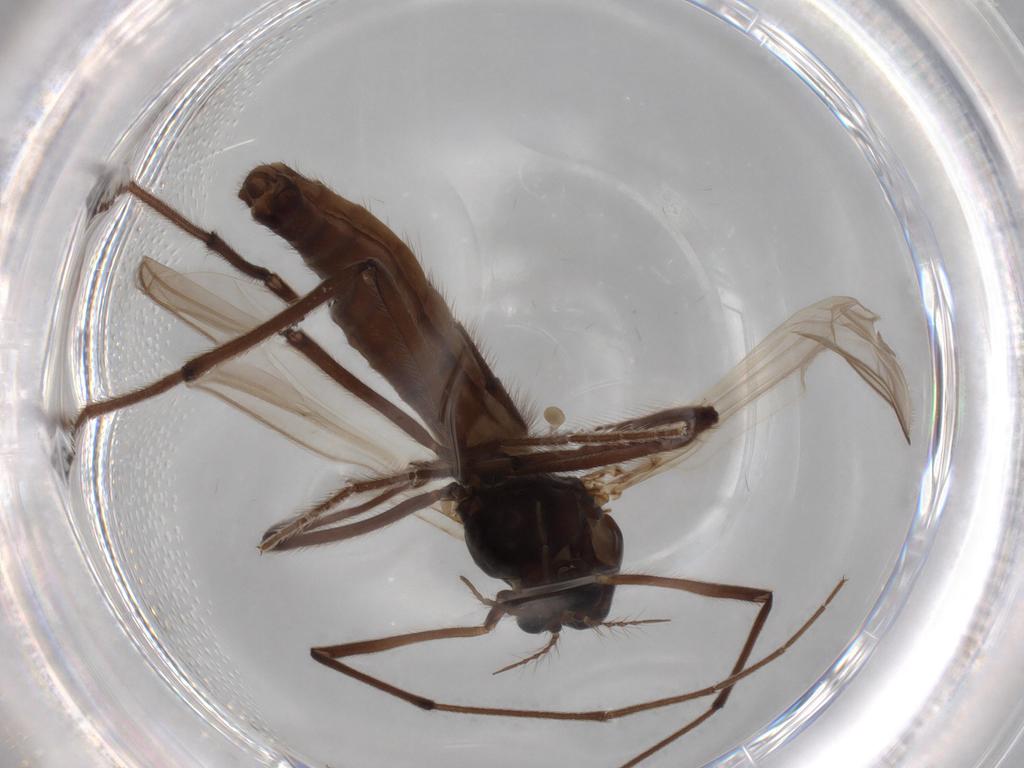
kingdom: Animalia
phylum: Arthropoda
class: Insecta
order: Diptera
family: Chironomidae
